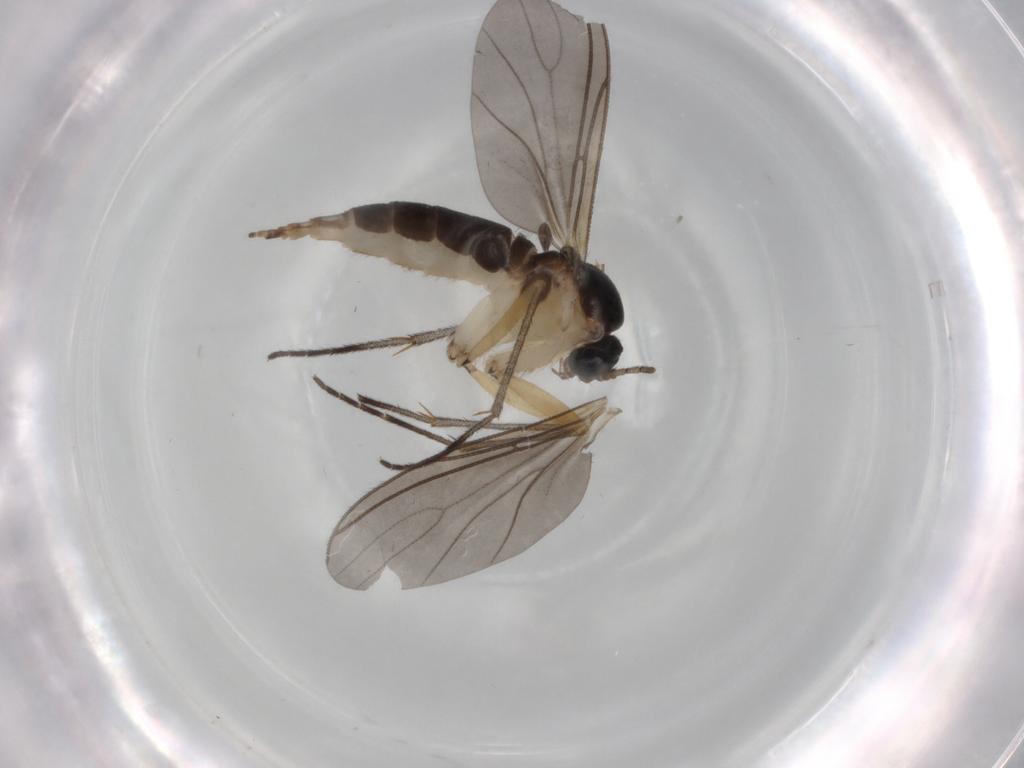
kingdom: Animalia
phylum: Arthropoda
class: Insecta
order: Diptera
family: Sciaridae
